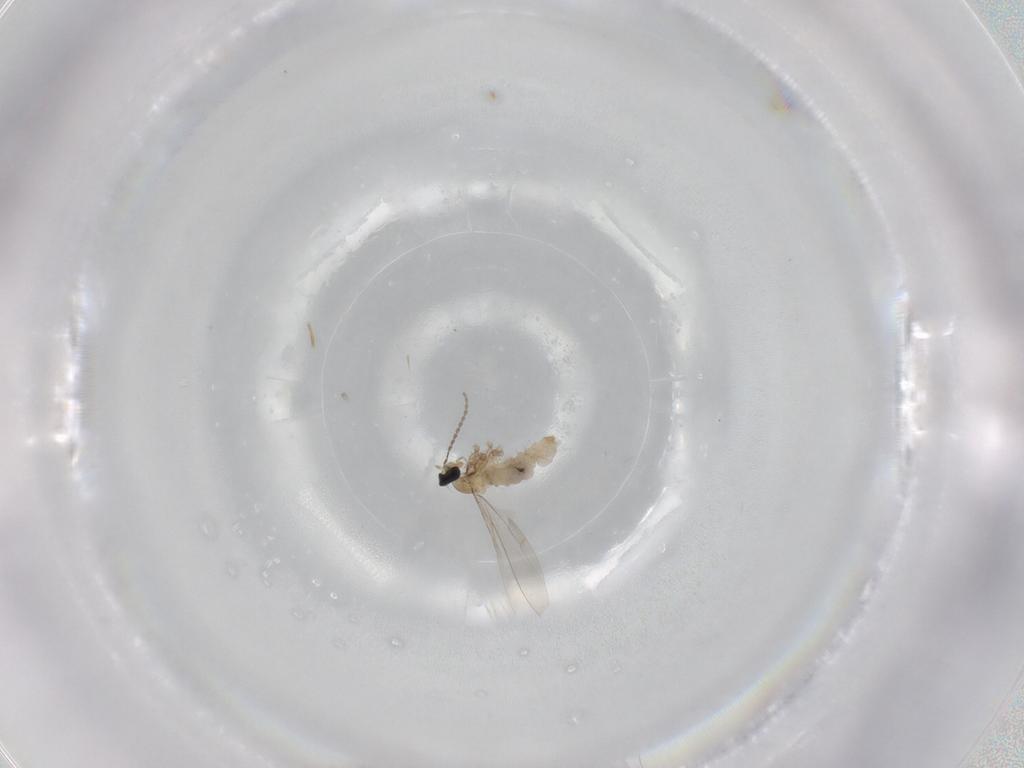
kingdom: Animalia
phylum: Arthropoda
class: Insecta
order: Diptera
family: Cecidomyiidae
